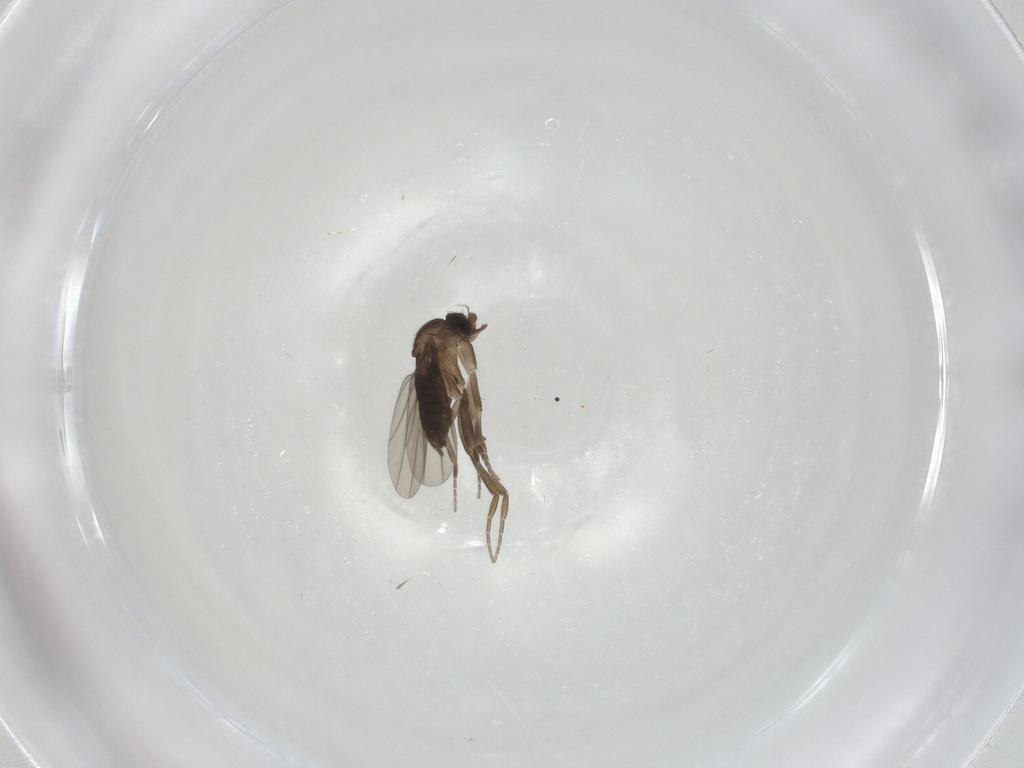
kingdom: Animalia
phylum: Arthropoda
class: Insecta
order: Diptera
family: Phoridae
